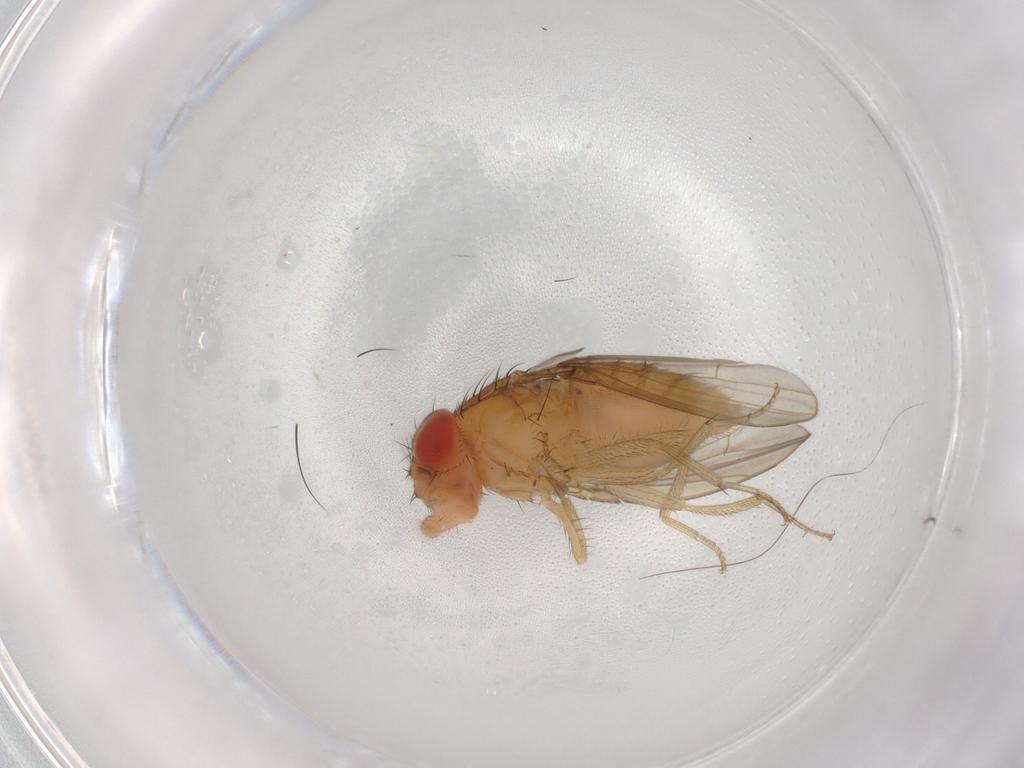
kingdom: Animalia
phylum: Arthropoda
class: Insecta
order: Diptera
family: Drosophilidae
